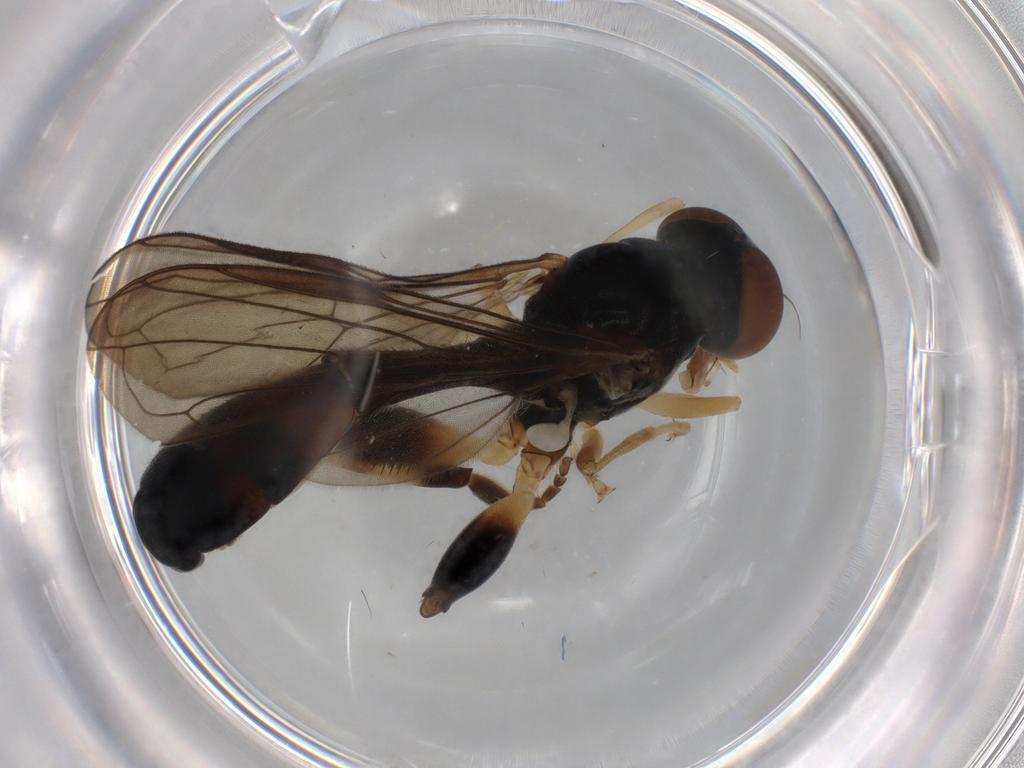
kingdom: Animalia
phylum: Arthropoda
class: Insecta
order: Diptera
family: Syrphidae
